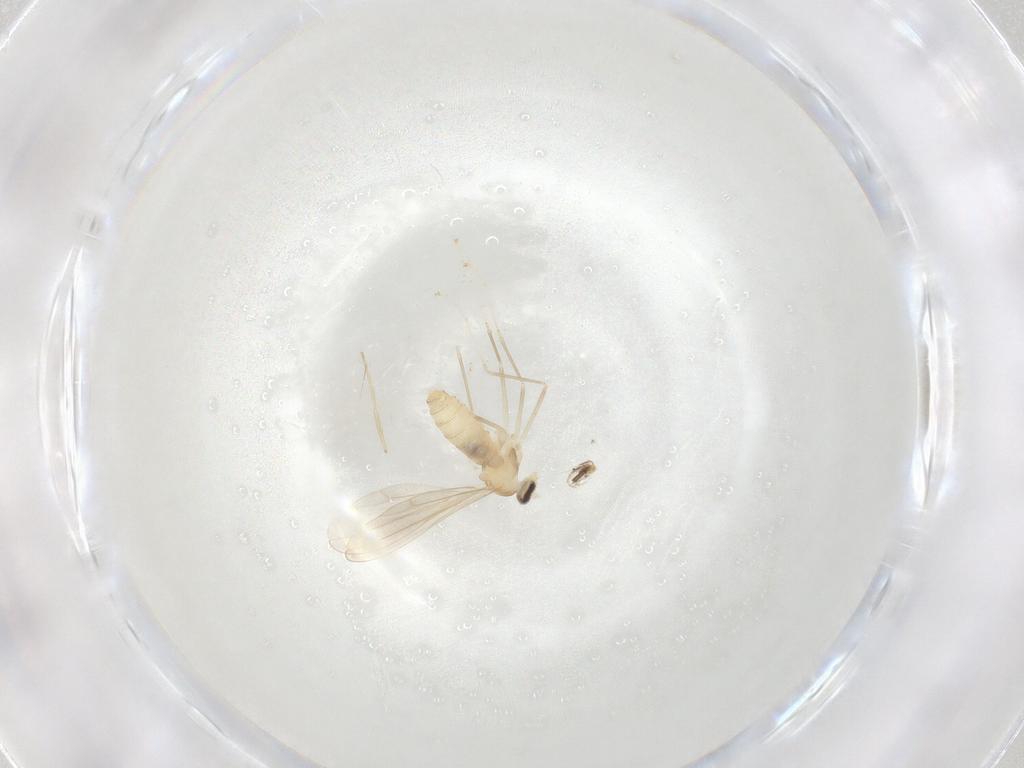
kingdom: Animalia
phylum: Arthropoda
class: Insecta
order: Diptera
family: Cecidomyiidae
